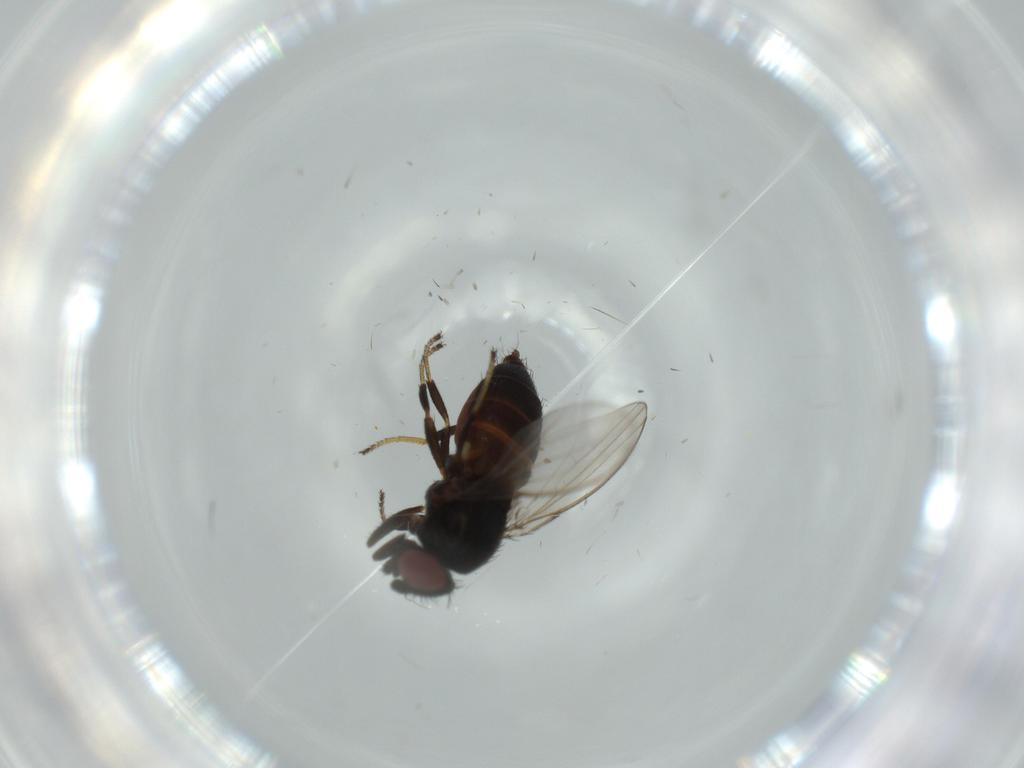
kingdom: Animalia
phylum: Arthropoda
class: Insecta
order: Diptera
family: Milichiidae
